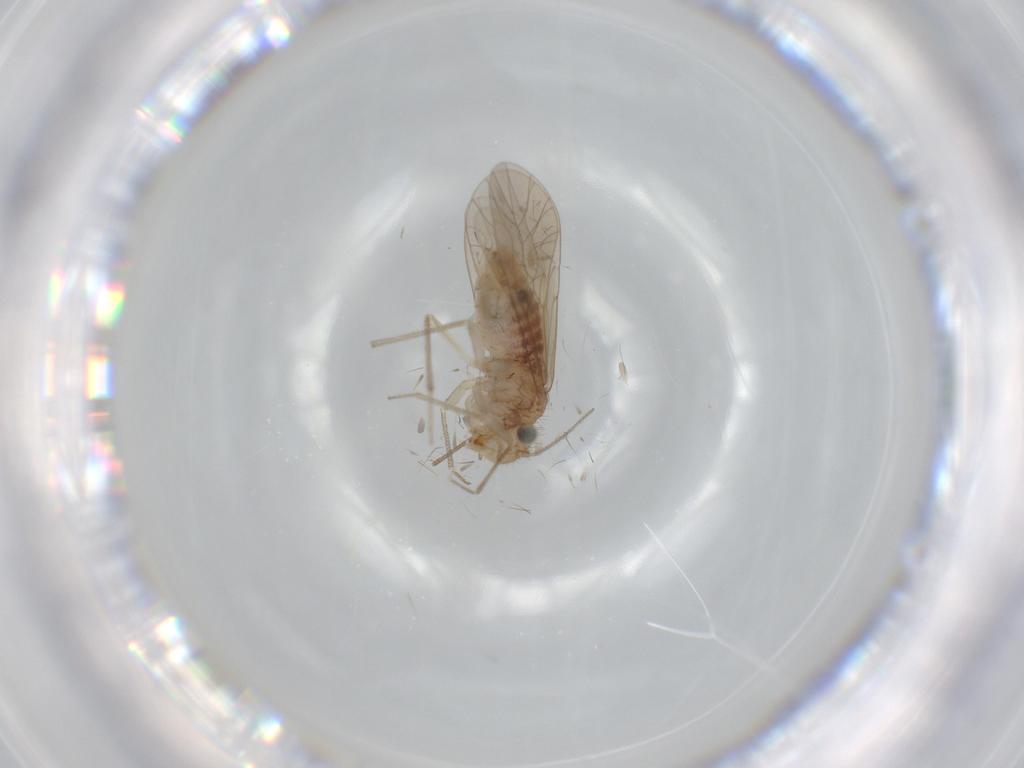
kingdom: Animalia
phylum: Arthropoda
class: Insecta
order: Psocodea
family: Caeciliusidae
